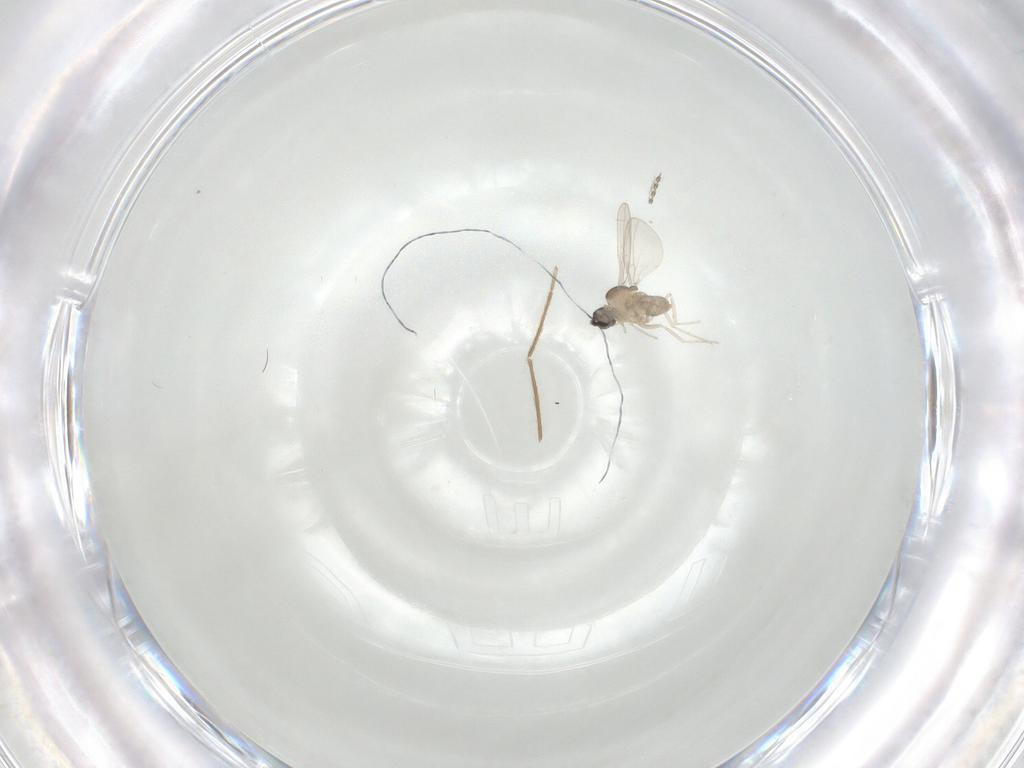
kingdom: Animalia
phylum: Arthropoda
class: Insecta
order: Diptera
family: Cecidomyiidae
